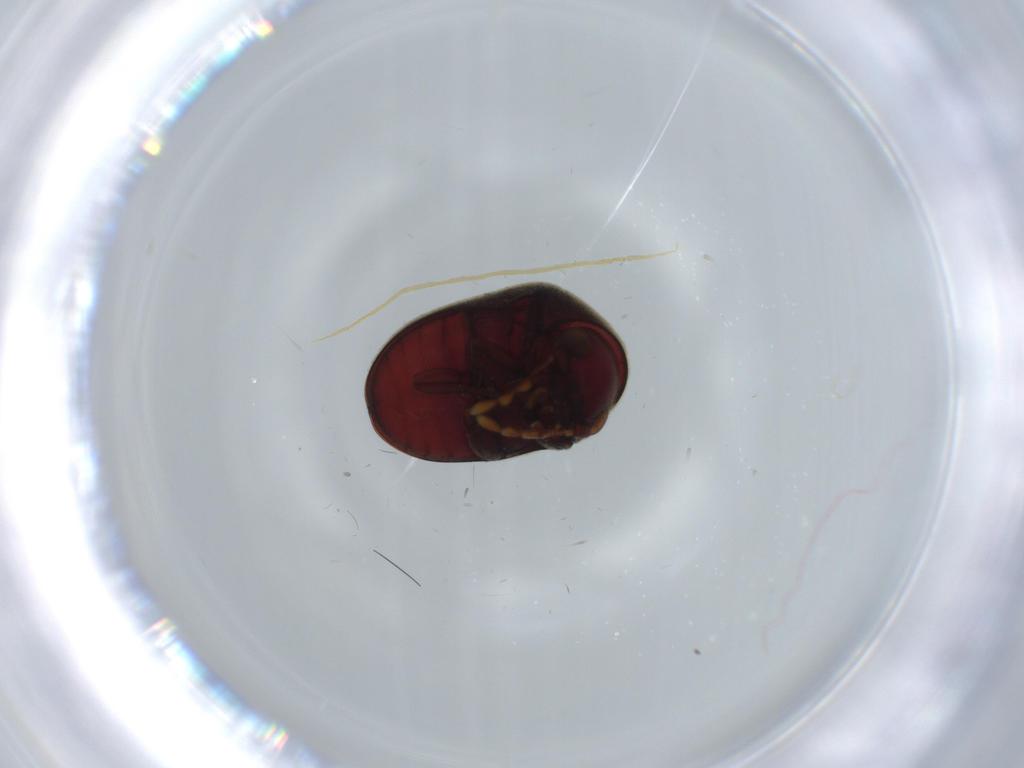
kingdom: Animalia
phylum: Arthropoda
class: Insecta
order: Coleoptera
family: Ptinidae
